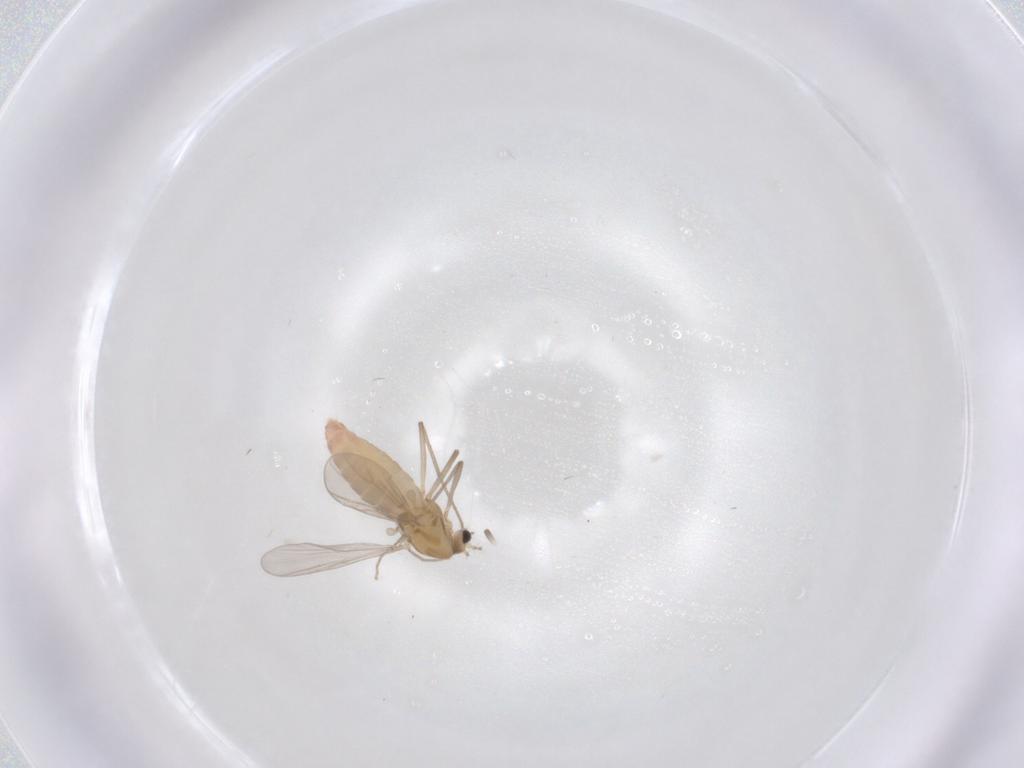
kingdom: Animalia
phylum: Arthropoda
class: Insecta
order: Diptera
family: Chironomidae
